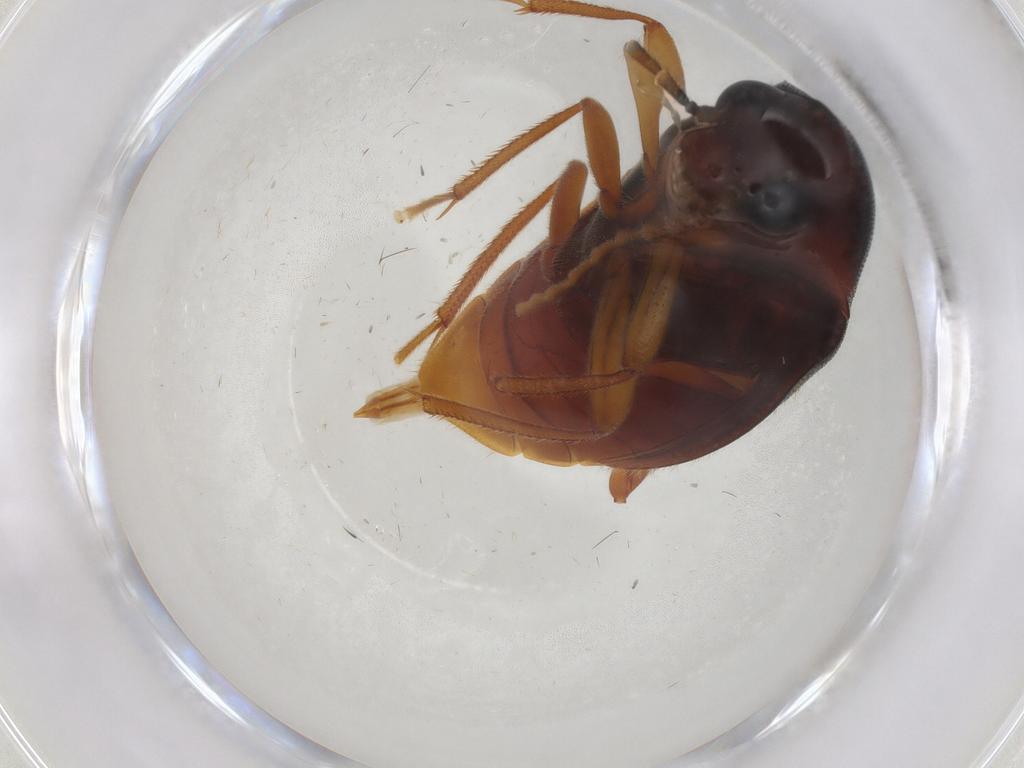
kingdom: Animalia
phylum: Arthropoda
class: Insecta
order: Coleoptera
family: Ptilodactylidae
